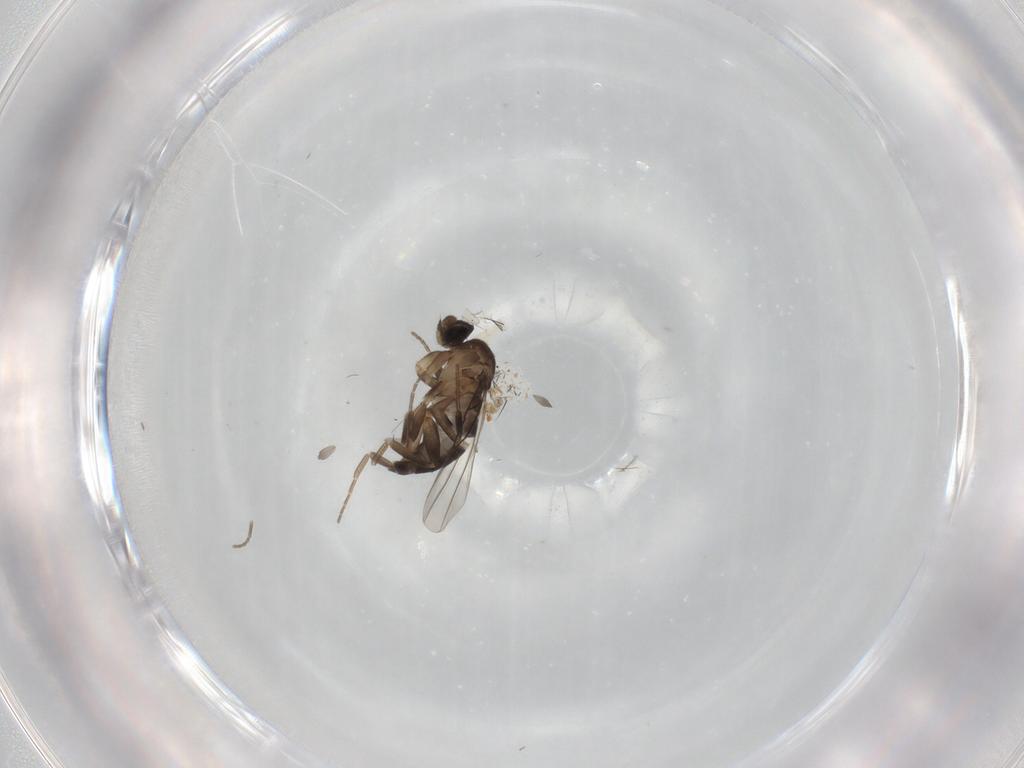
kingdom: Animalia
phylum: Arthropoda
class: Insecta
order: Diptera
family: Phoridae
